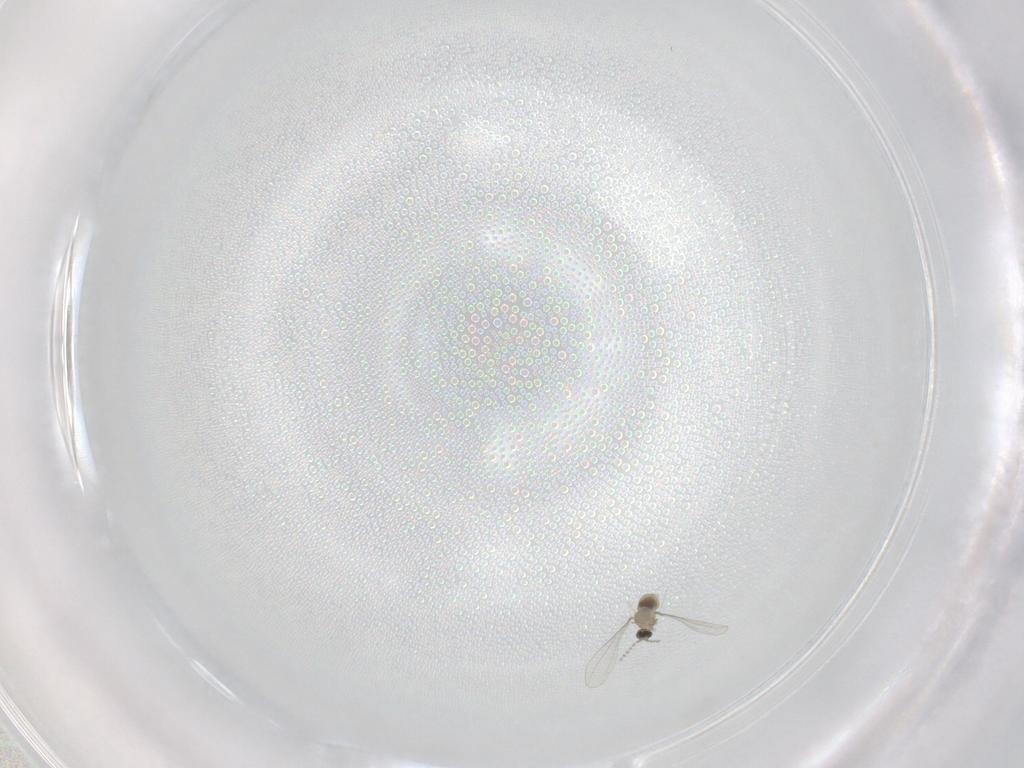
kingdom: Animalia
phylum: Arthropoda
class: Insecta
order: Diptera
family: Cecidomyiidae
